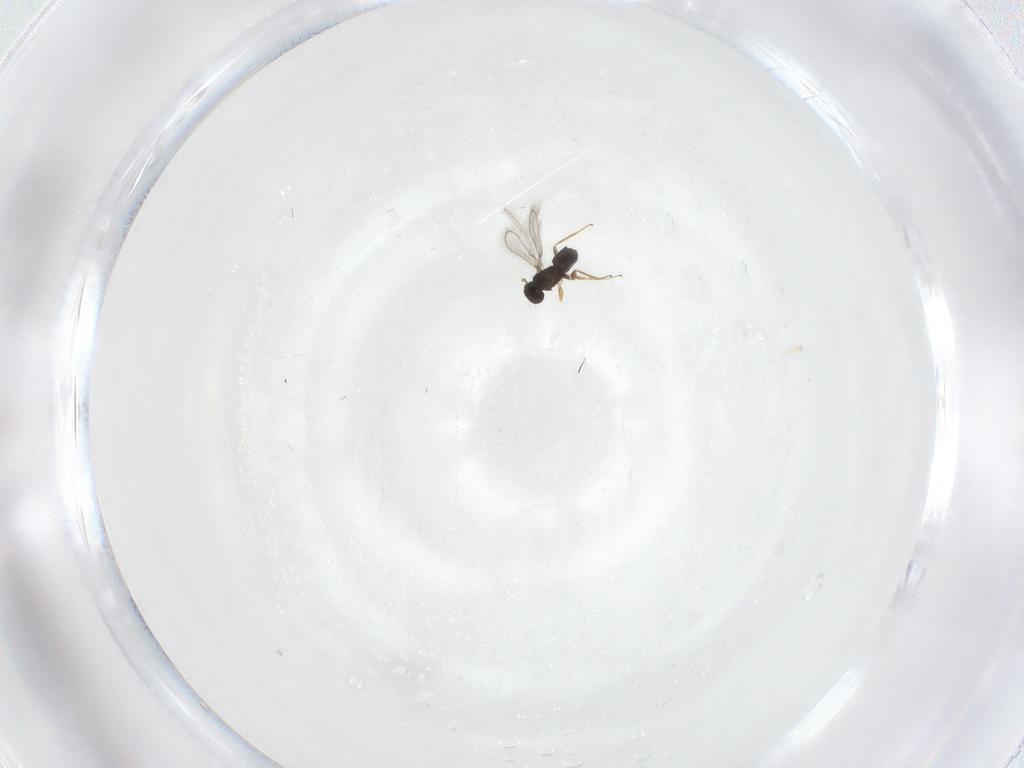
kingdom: Animalia
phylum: Arthropoda
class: Insecta
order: Hymenoptera
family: Mymaridae
